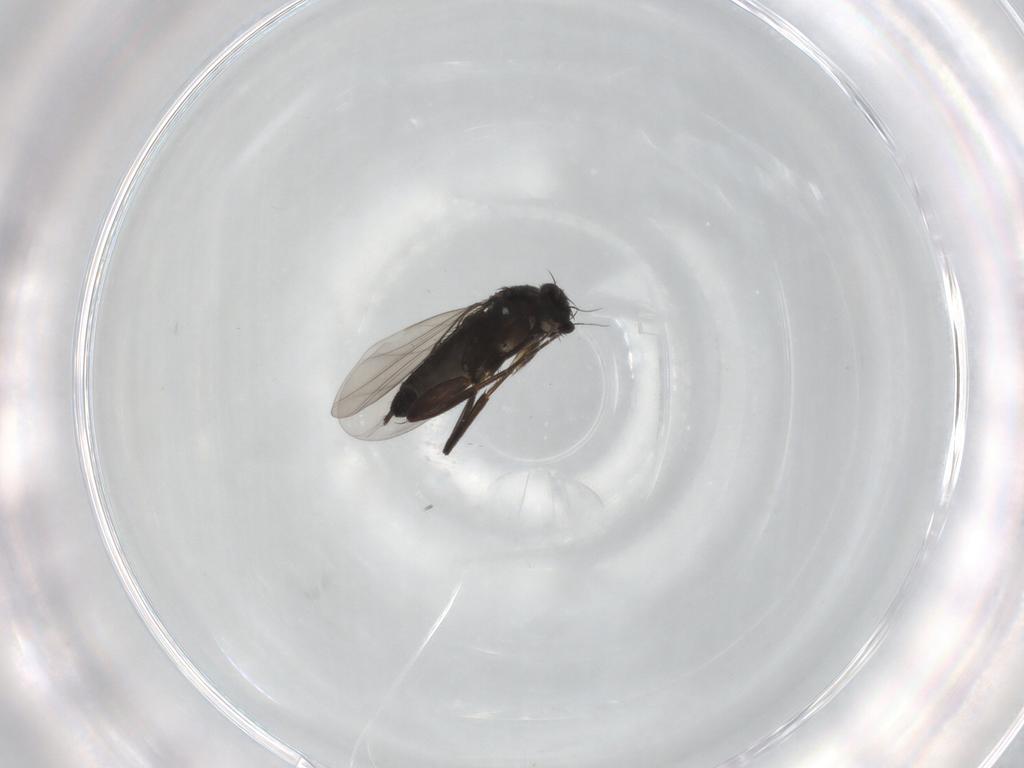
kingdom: Animalia
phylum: Arthropoda
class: Insecta
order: Diptera
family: Phoridae
